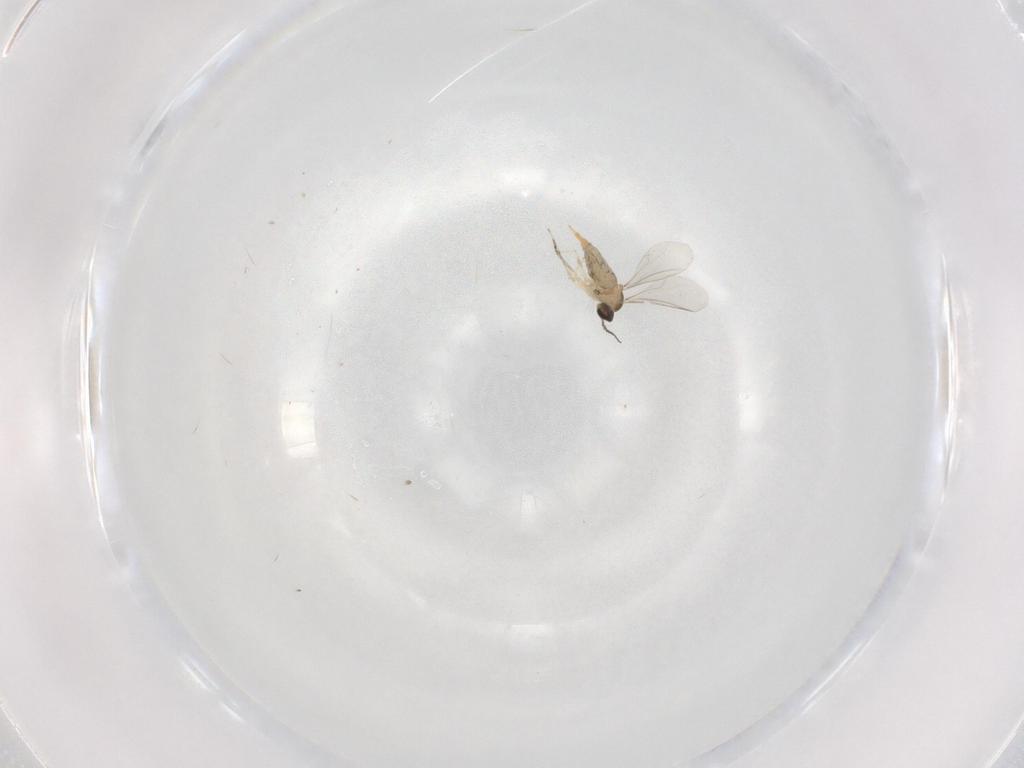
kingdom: Animalia
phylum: Arthropoda
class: Insecta
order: Diptera
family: Cecidomyiidae
